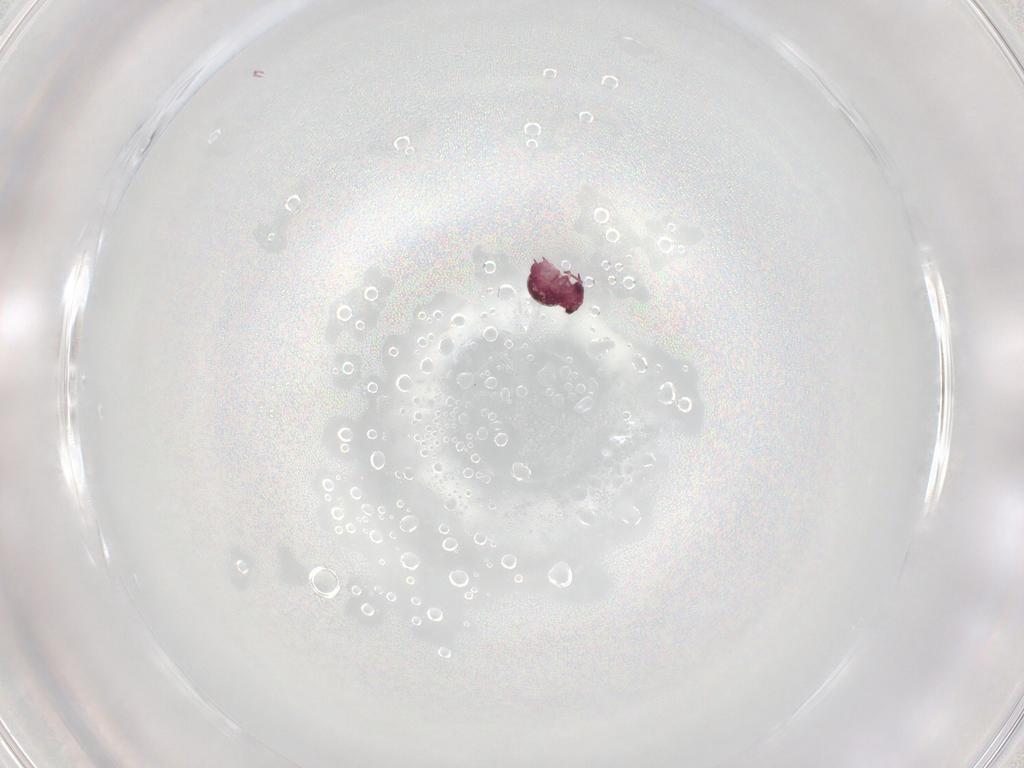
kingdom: Animalia
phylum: Arthropoda
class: Collembola
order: Symphypleona
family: Sminthurididae
